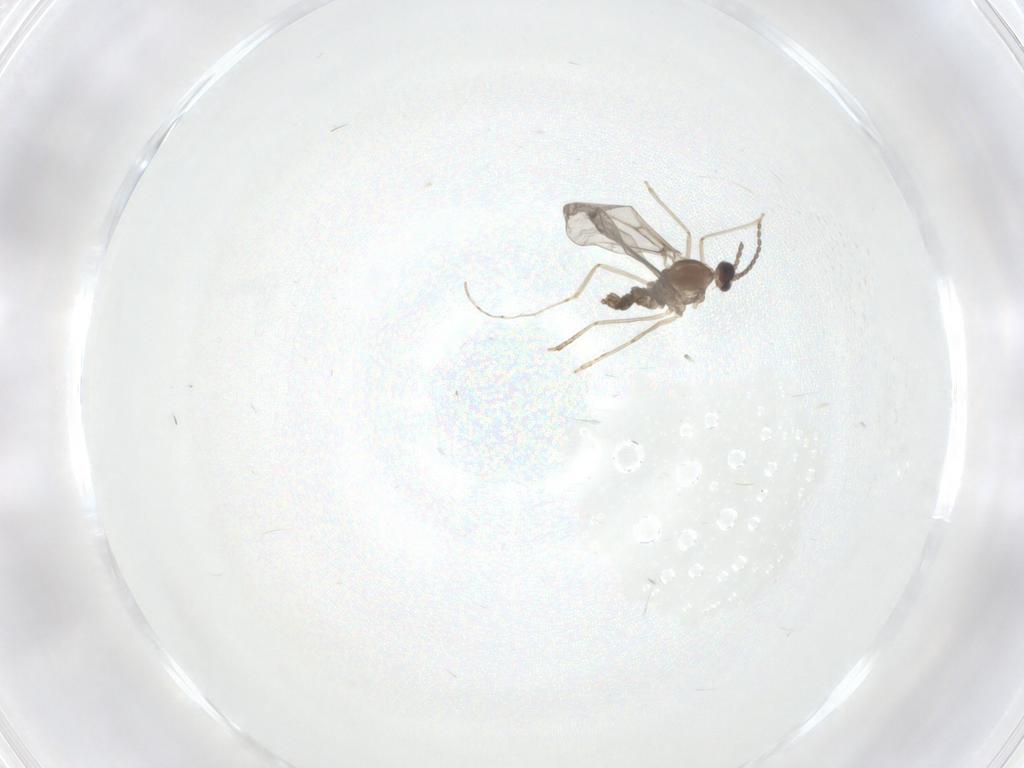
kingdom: Animalia
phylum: Arthropoda
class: Insecta
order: Diptera
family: Cecidomyiidae
